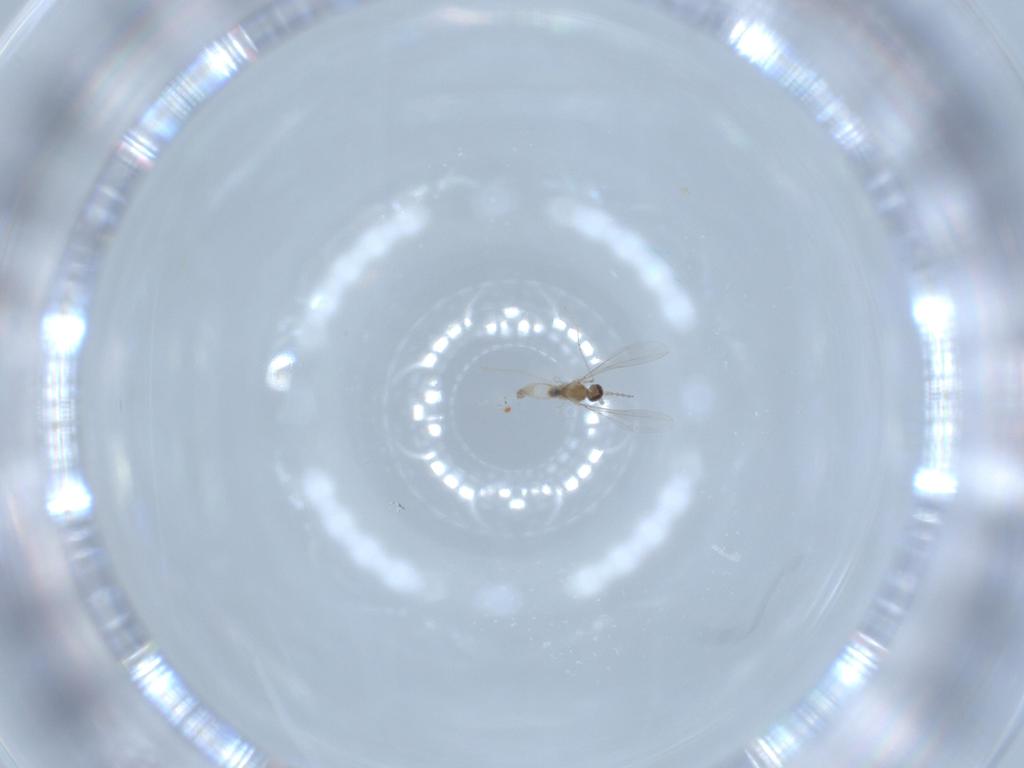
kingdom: Animalia
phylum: Arthropoda
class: Insecta
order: Diptera
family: Cecidomyiidae
